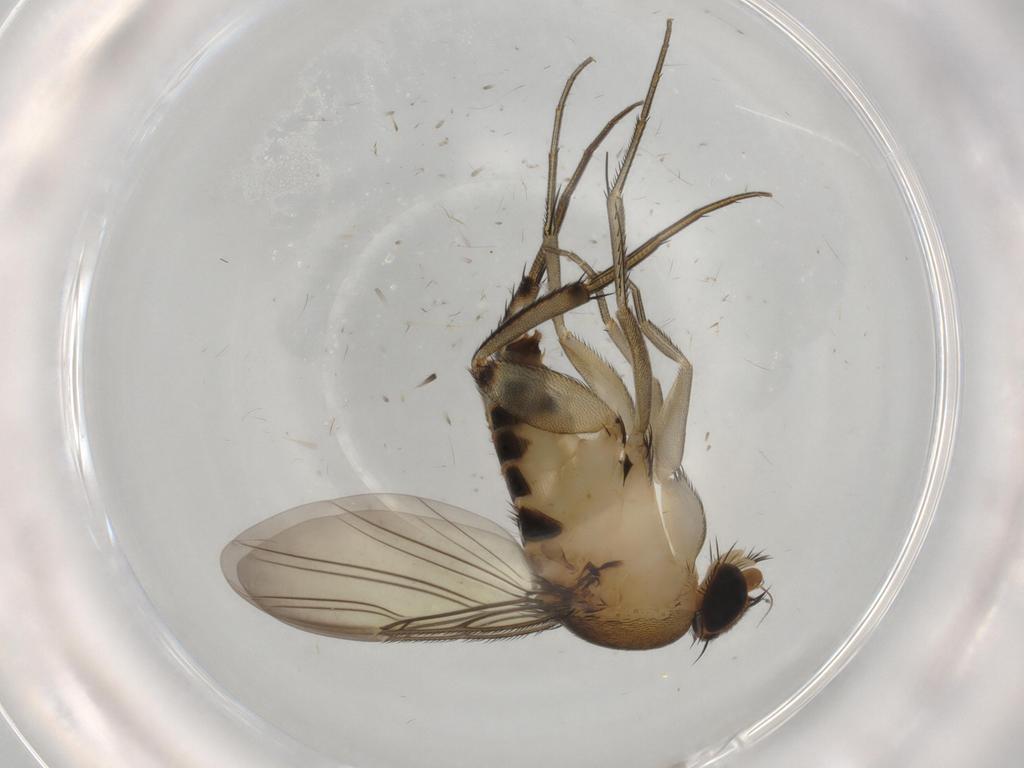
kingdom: Animalia
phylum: Arthropoda
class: Insecta
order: Diptera
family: Phoridae
